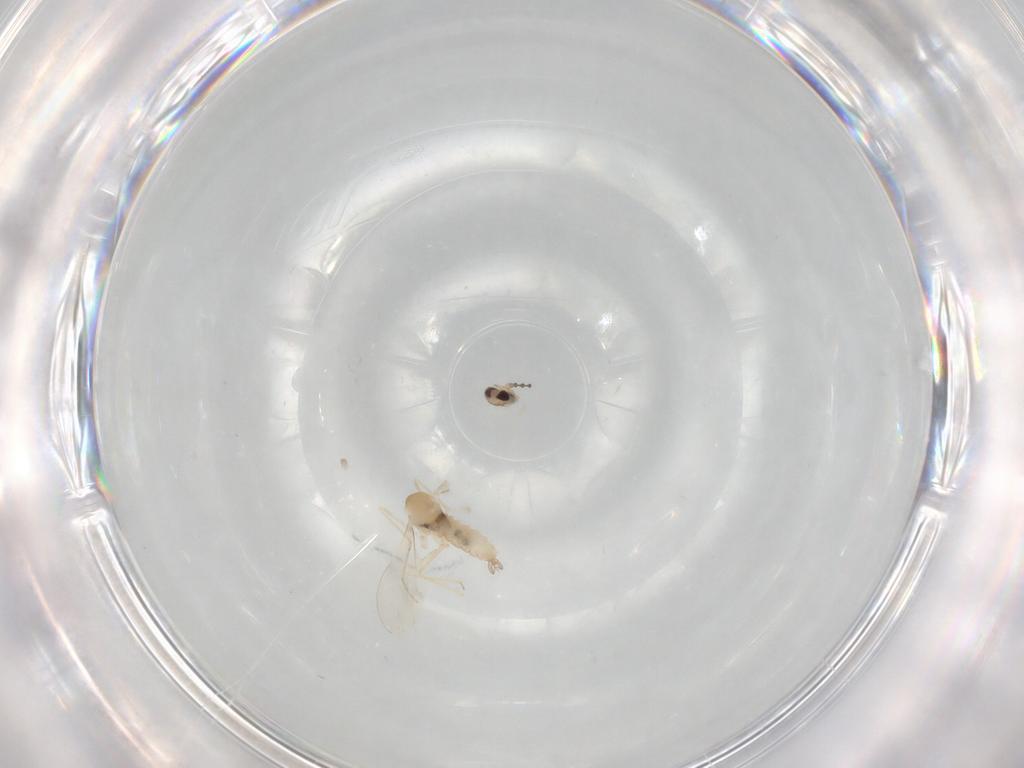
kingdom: Animalia
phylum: Arthropoda
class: Insecta
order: Diptera
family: Cecidomyiidae
